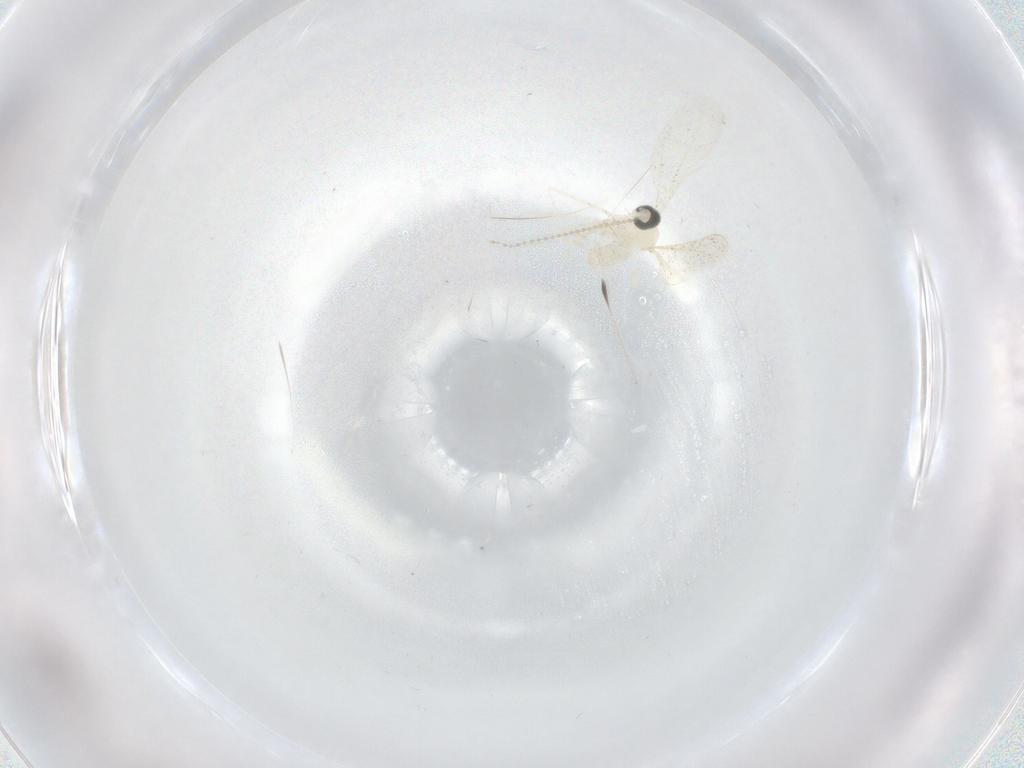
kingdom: Animalia
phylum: Arthropoda
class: Insecta
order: Diptera
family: Cecidomyiidae
